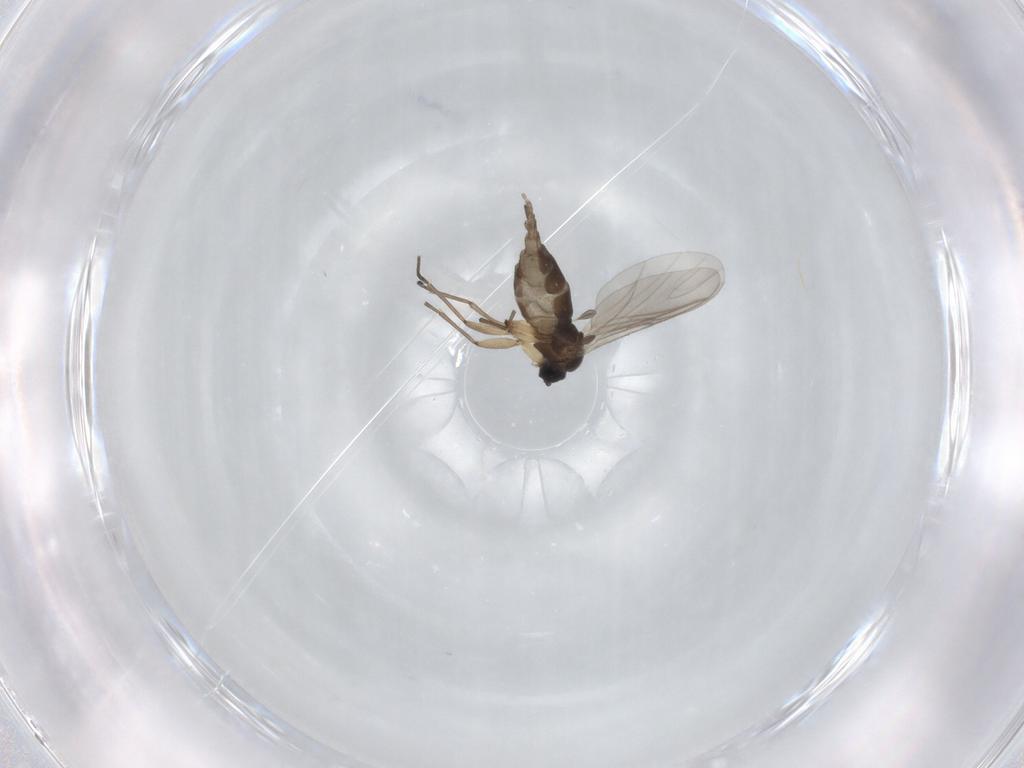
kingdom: Animalia
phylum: Arthropoda
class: Insecta
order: Diptera
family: Sciaridae
